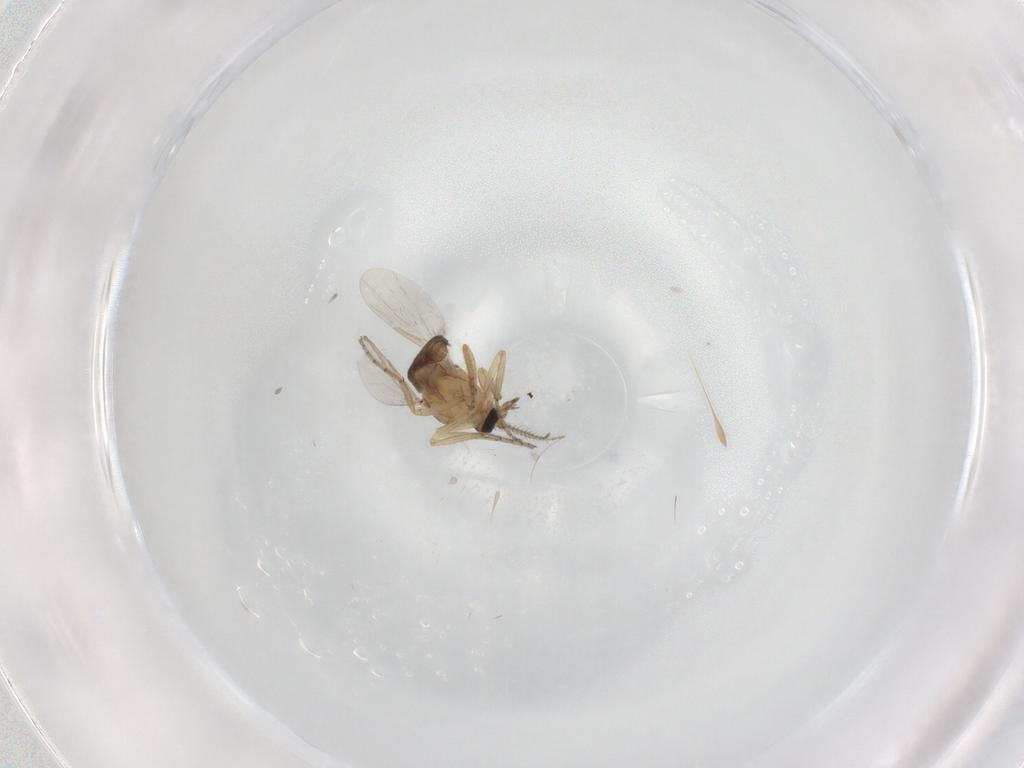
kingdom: Animalia
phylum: Arthropoda
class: Insecta
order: Diptera
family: Ceratopogonidae
